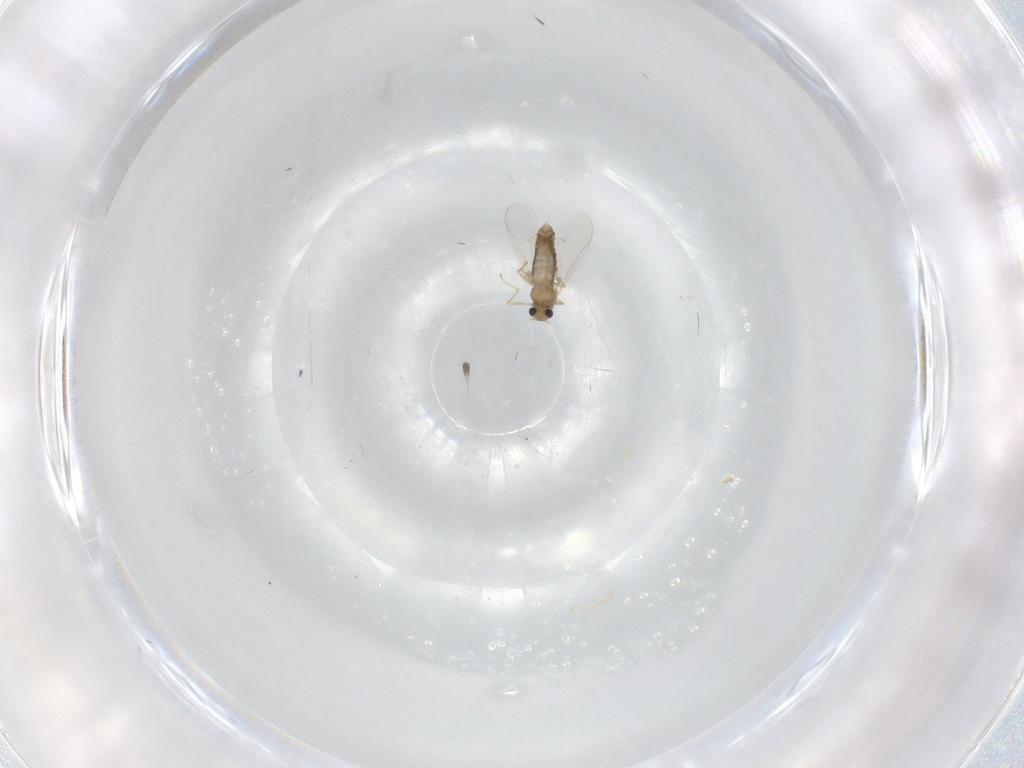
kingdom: Animalia
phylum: Arthropoda
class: Insecta
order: Diptera
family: Chironomidae
